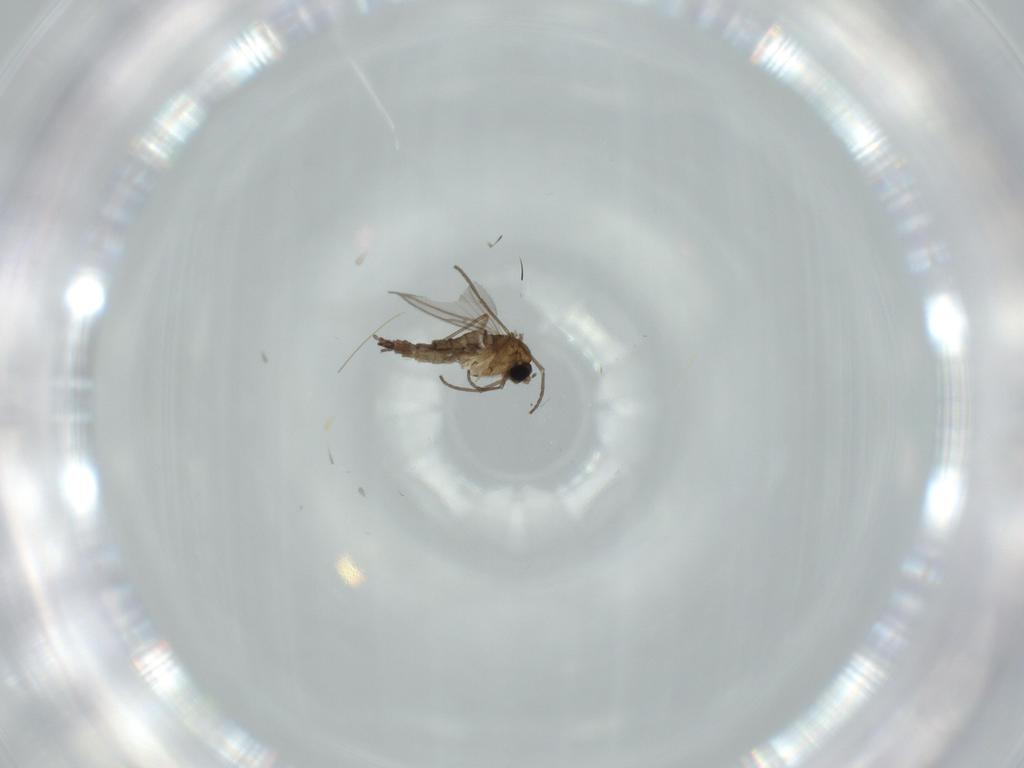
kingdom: Animalia
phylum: Arthropoda
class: Insecta
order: Diptera
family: Sciaridae
